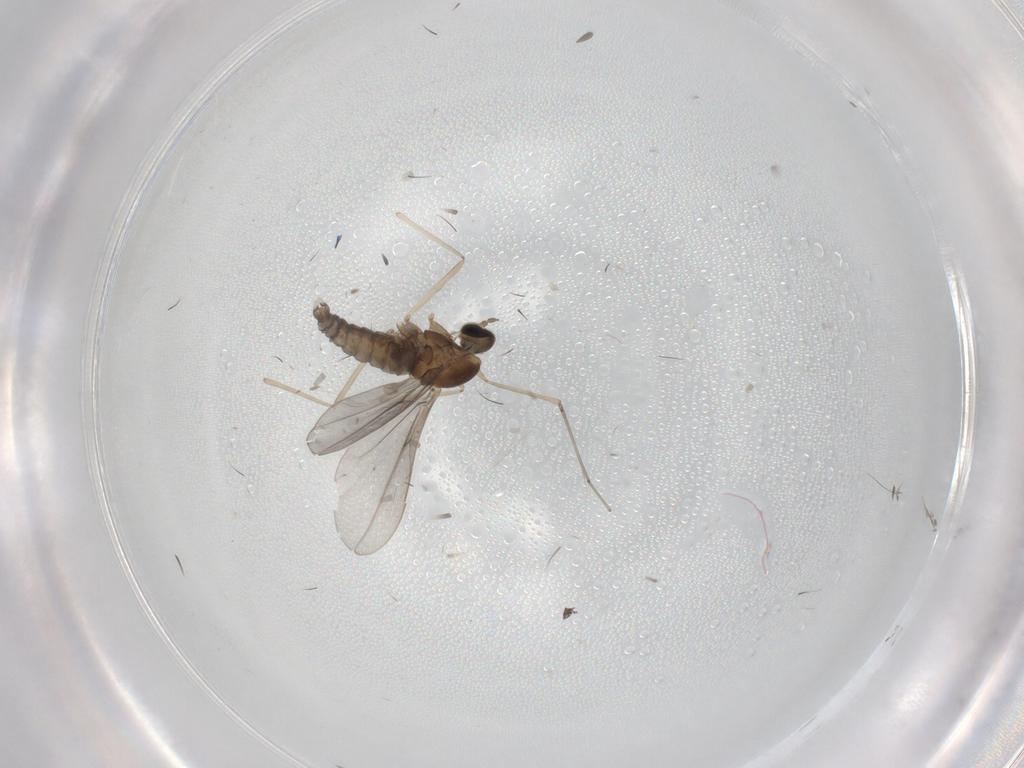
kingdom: Animalia
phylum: Arthropoda
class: Insecta
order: Diptera
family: Cecidomyiidae
